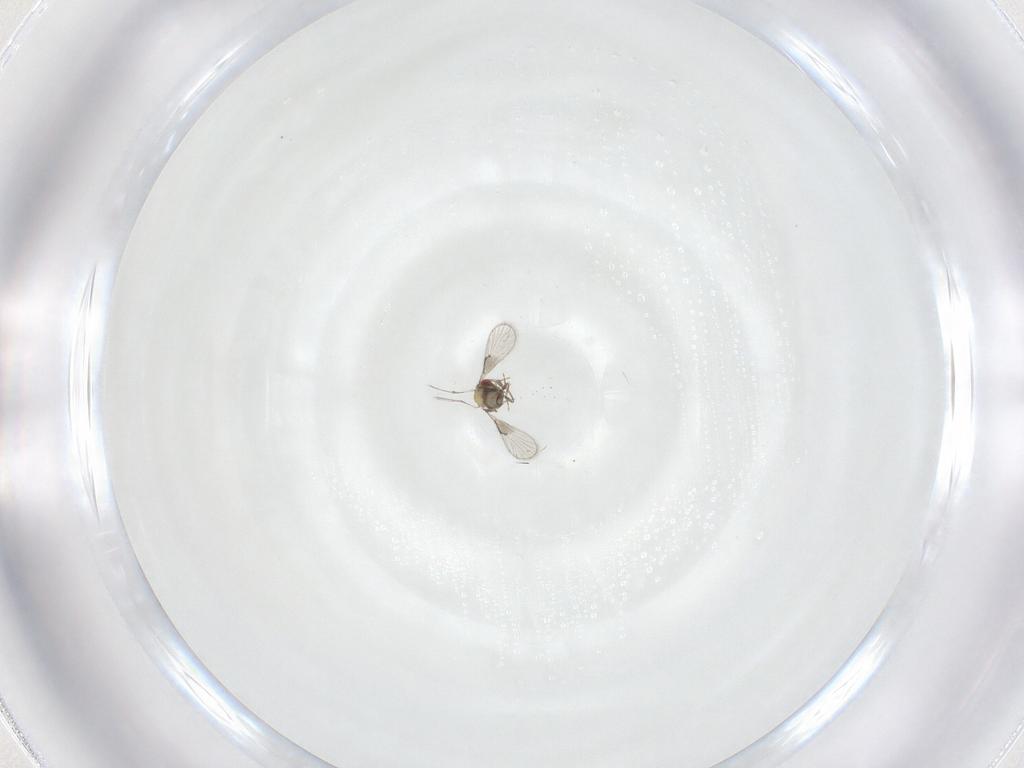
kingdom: Animalia
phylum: Arthropoda
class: Insecta
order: Hymenoptera
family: Trichogrammatidae
